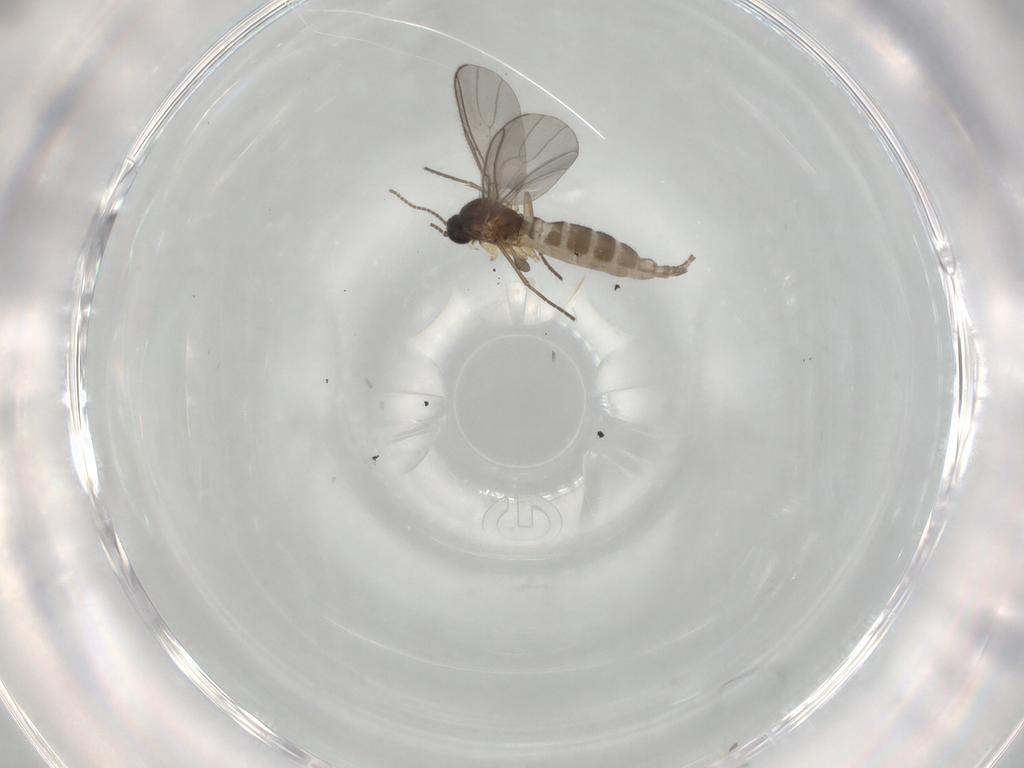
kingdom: Animalia
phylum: Arthropoda
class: Insecta
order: Diptera
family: Sciaridae
